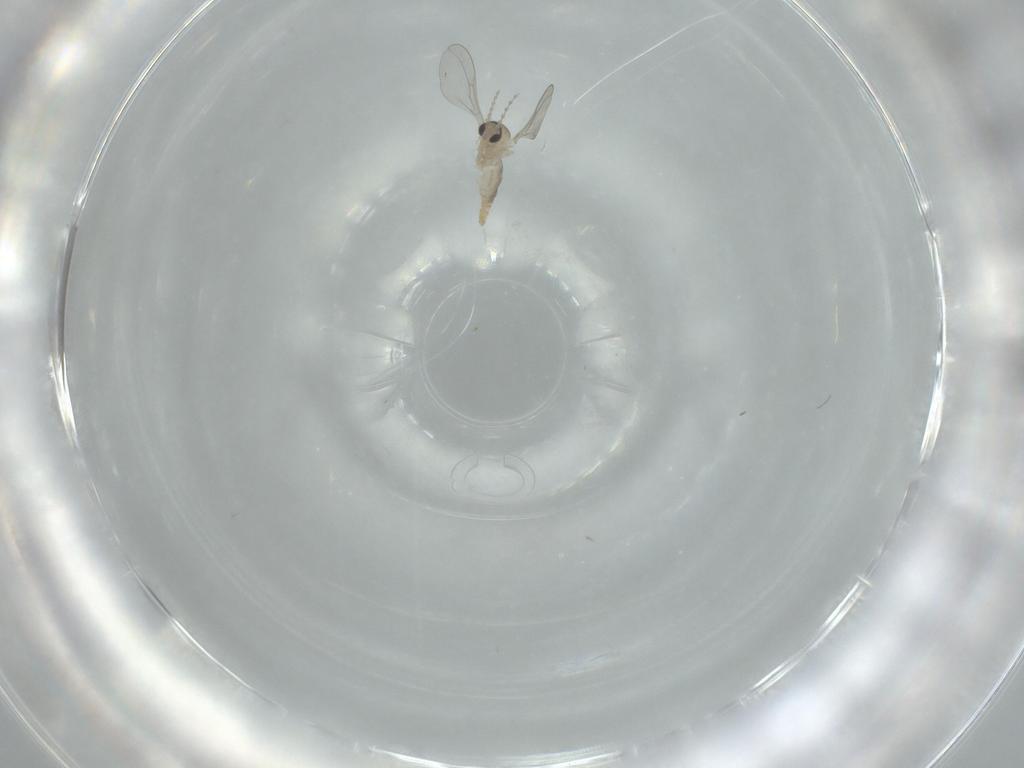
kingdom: Animalia
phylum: Arthropoda
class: Insecta
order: Diptera
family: Cecidomyiidae
